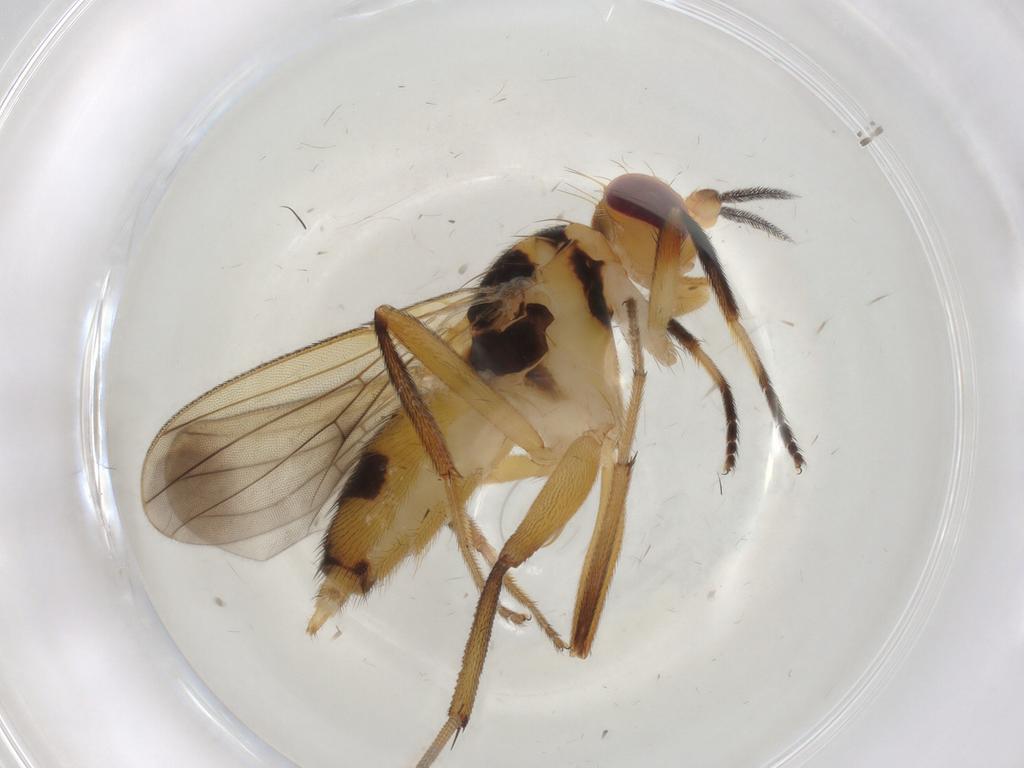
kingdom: Animalia
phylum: Arthropoda
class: Insecta
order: Diptera
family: Clusiidae
